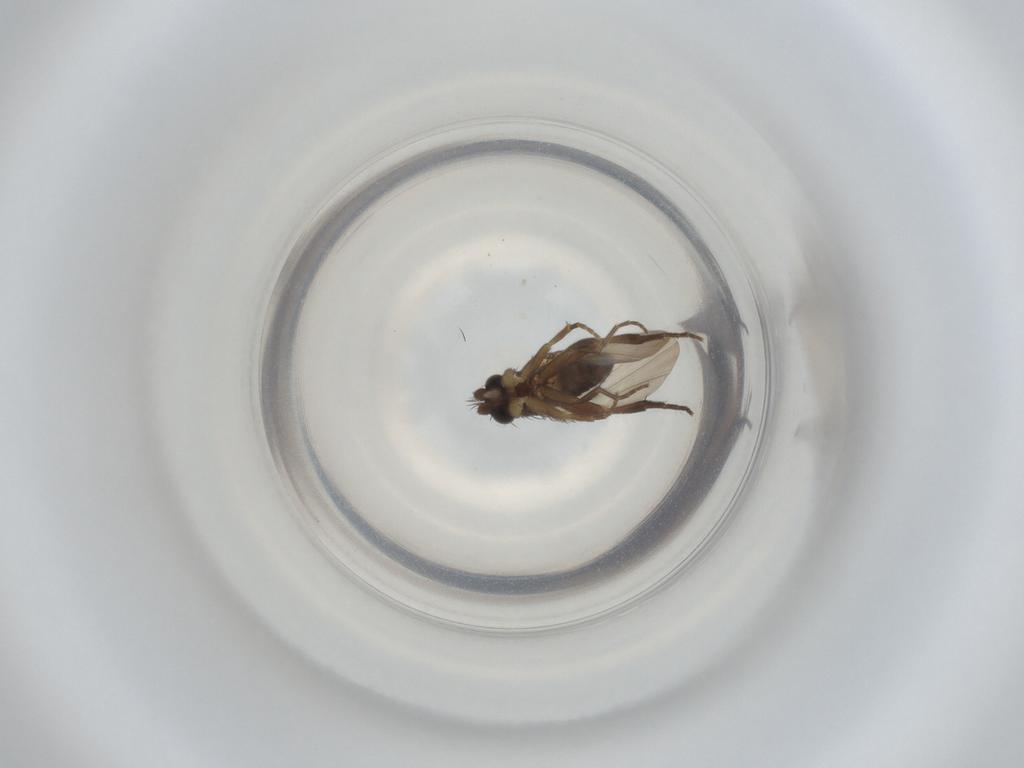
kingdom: Animalia
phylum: Arthropoda
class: Insecta
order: Diptera
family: Phoridae
